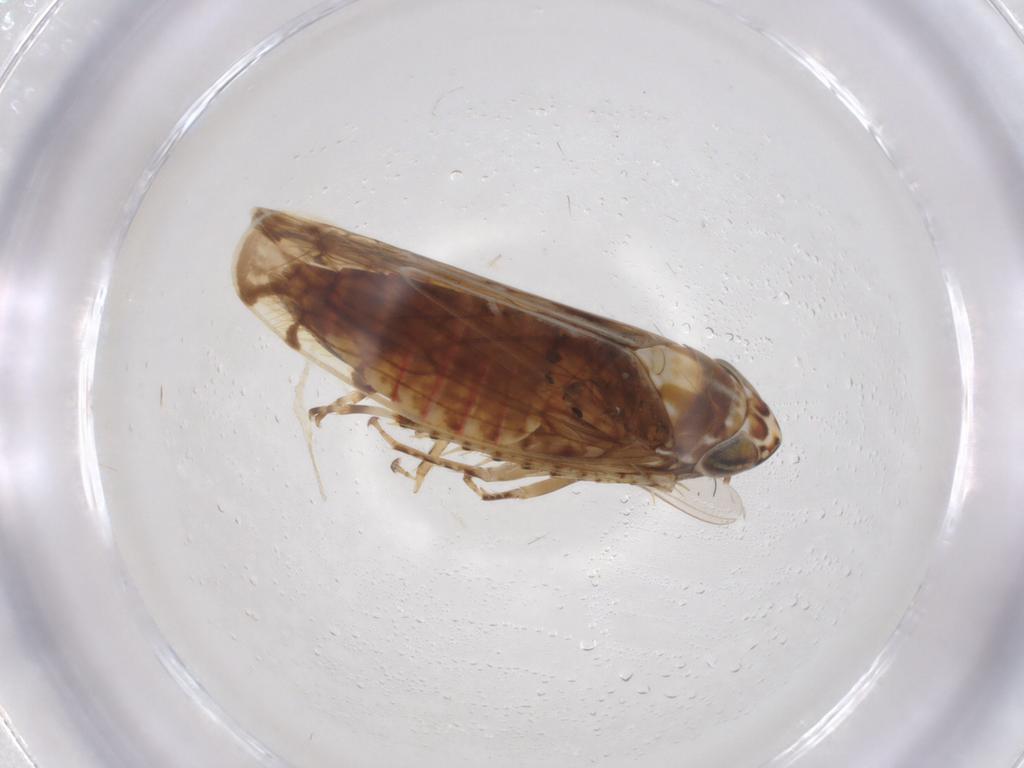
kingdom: Animalia
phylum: Arthropoda
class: Insecta
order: Hemiptera
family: Cicadellidae
